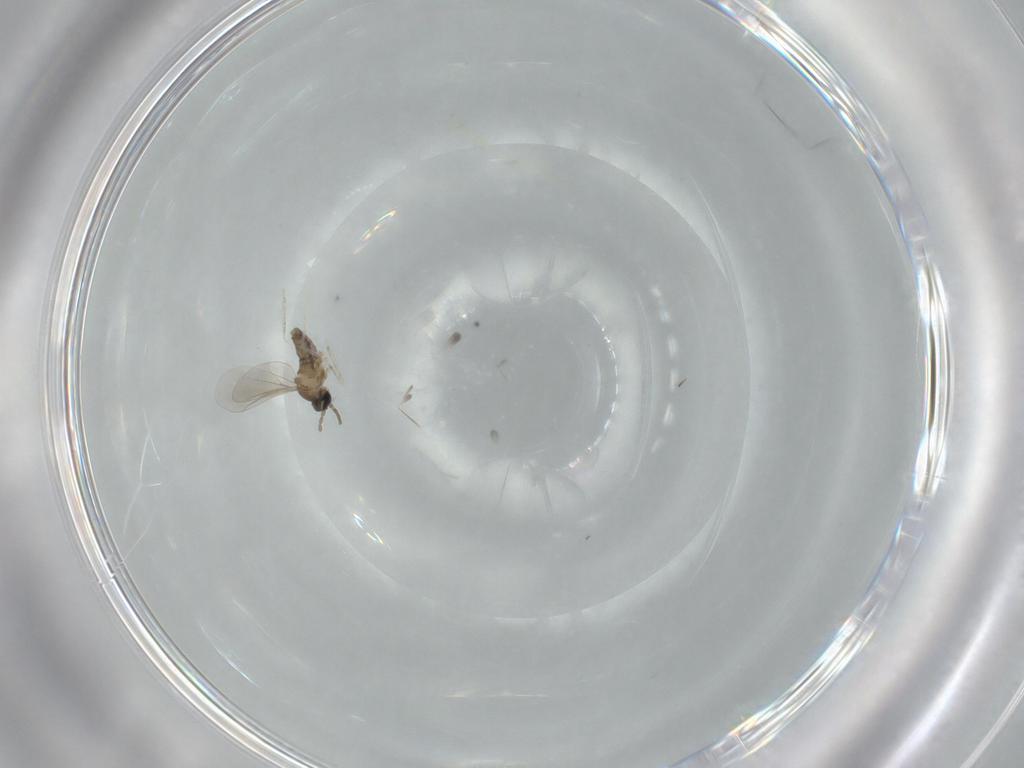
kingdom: Animalia
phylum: Arthropoda
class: Insecta
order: Diptera
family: Cecidomyiidae
